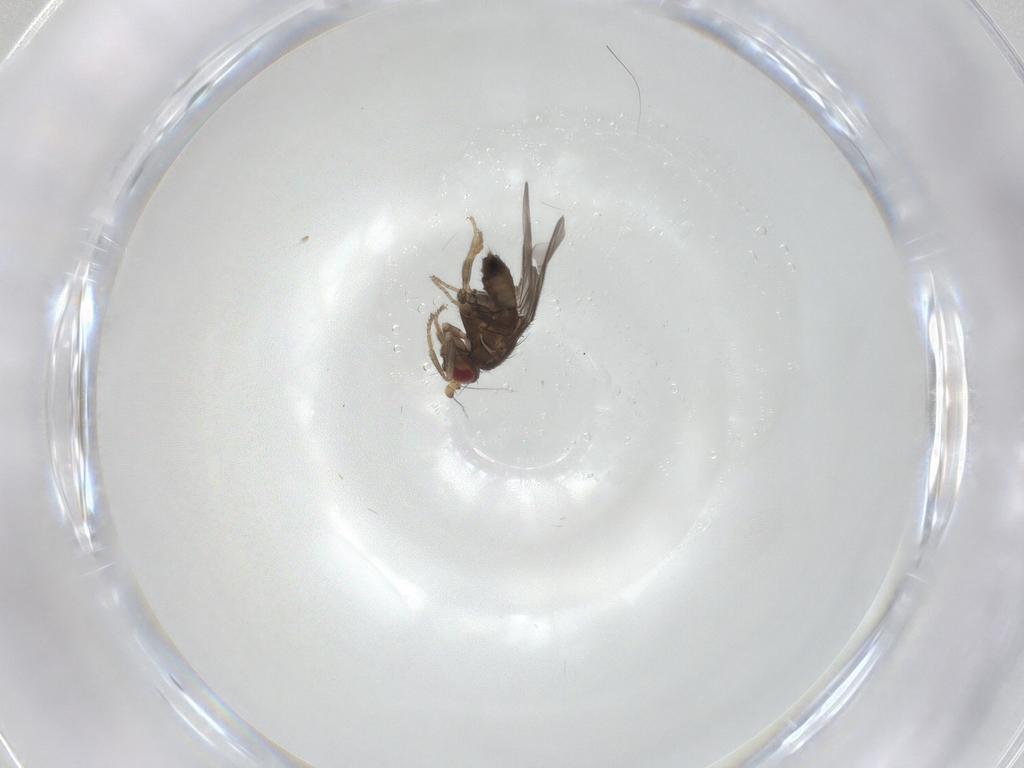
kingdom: Animalia
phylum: Arthropoda
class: Insecta
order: Diptera
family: Sphaeroceridae
